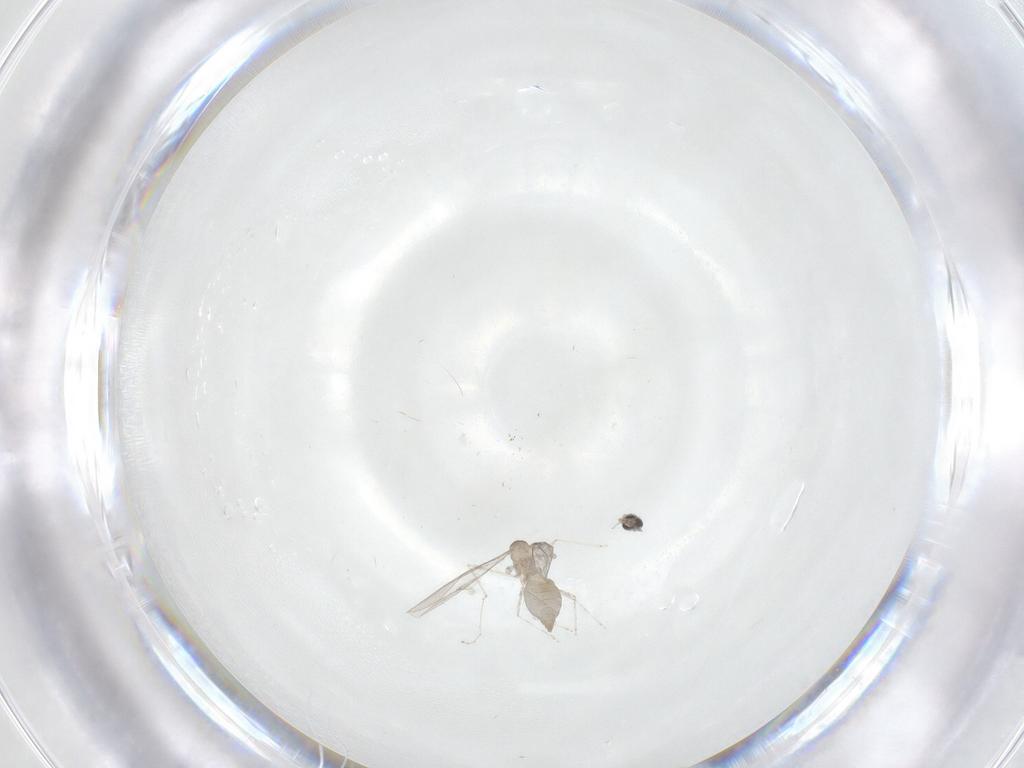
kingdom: Animalia
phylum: Arthropoda
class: Insecta
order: Diptera
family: Cecidomyiidae
